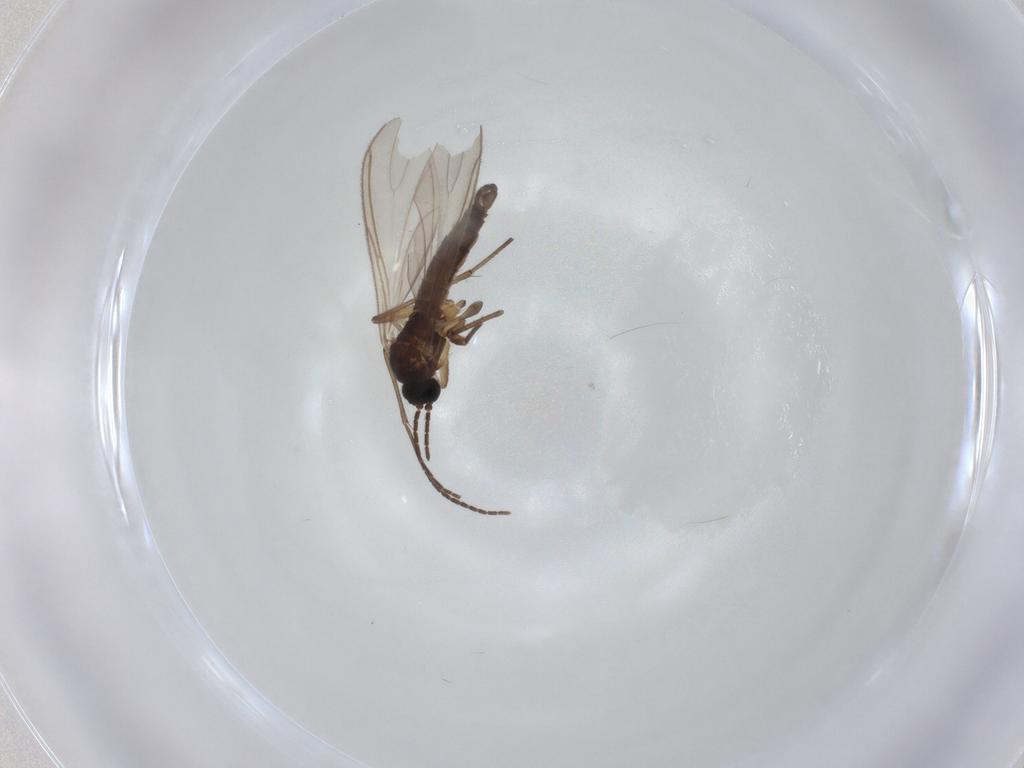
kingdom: Animalia
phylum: Arthropoda
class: Insecta
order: Diptera
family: Sciaridae
